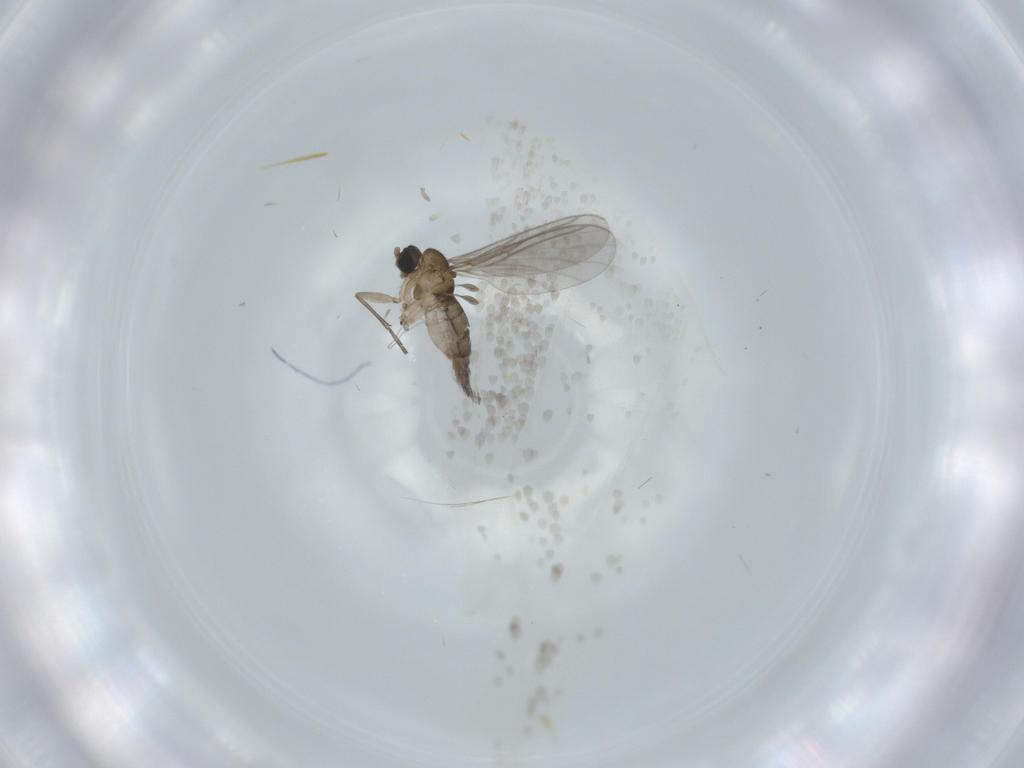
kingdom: Animalia
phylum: Arthropoda
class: Insecta
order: Diptera
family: Sciaridae
